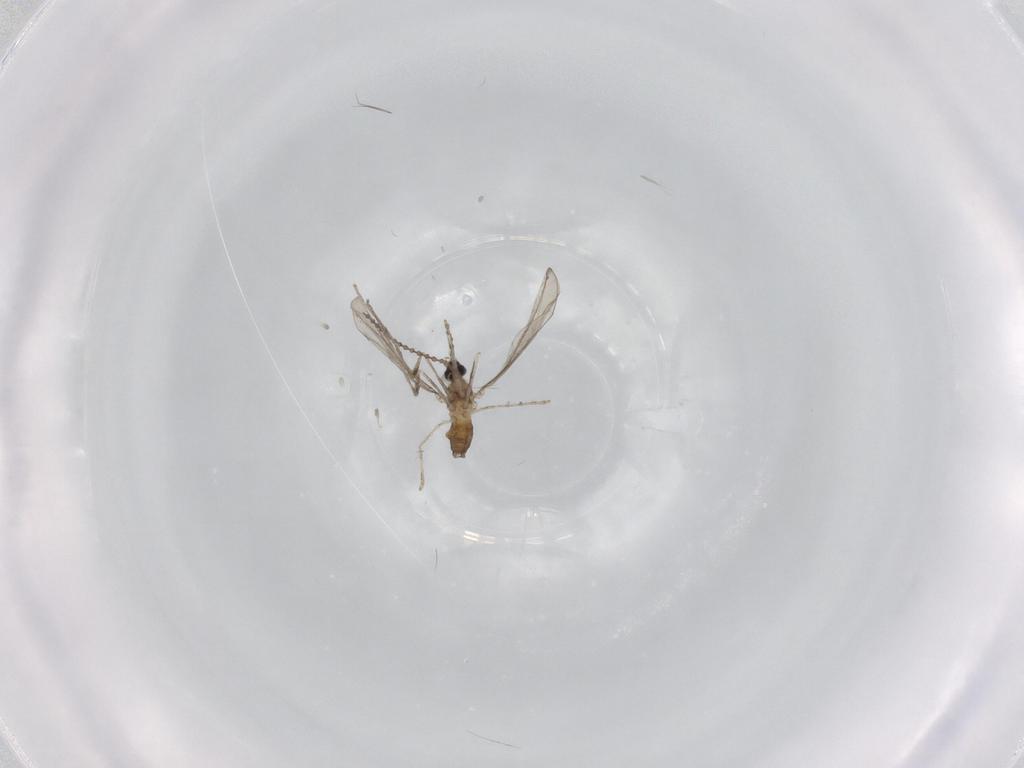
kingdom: Animalia
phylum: Arthropoda
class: Insecta
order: Diptera
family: Cecidomyiidae
